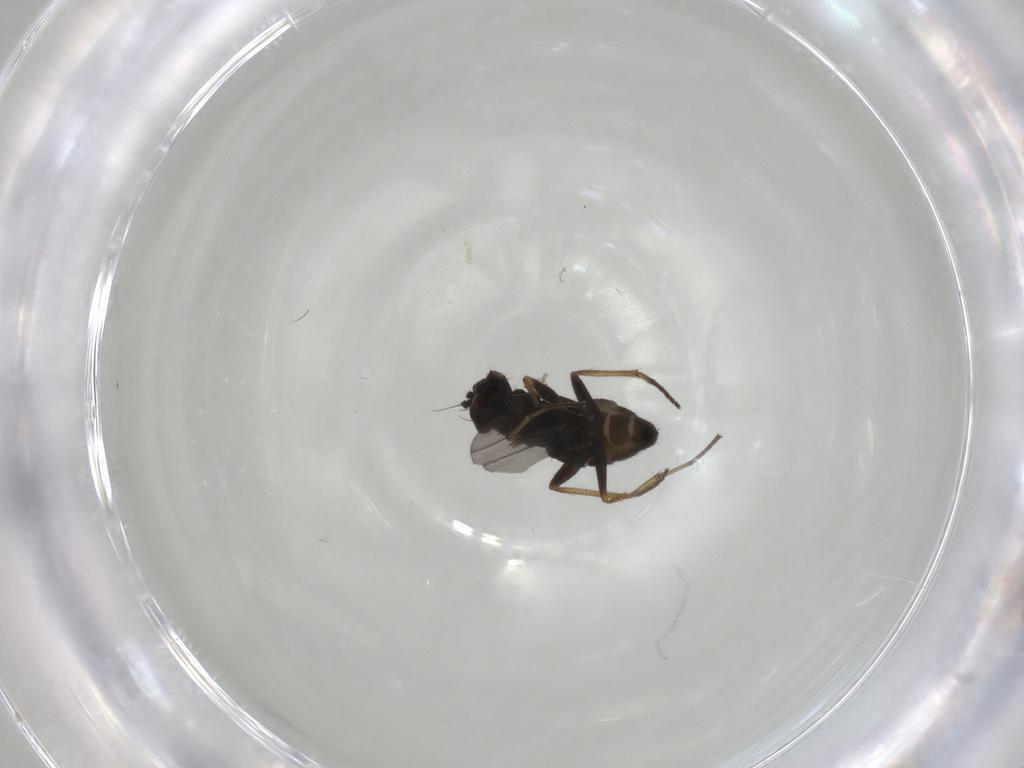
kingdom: Animalia
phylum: Arthropoda
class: Insecta
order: Diptera
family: Dolichopodidae
